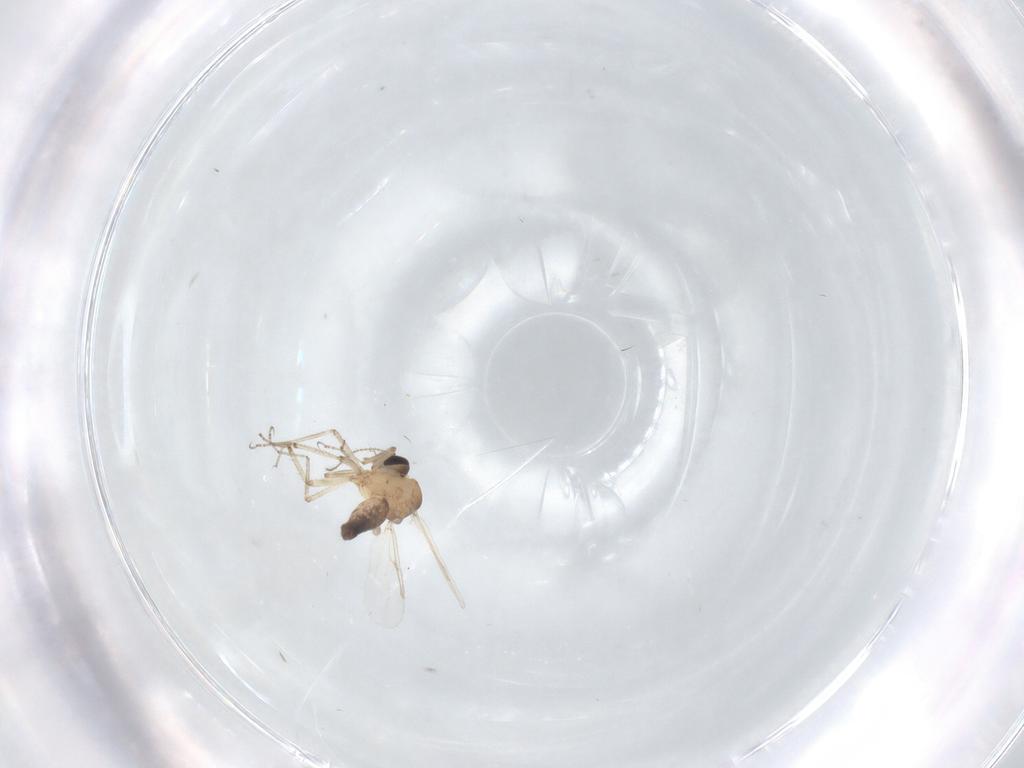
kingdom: Animalia
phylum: Arthropoda
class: Insecta
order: Diptera
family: Ceratopogonidae
